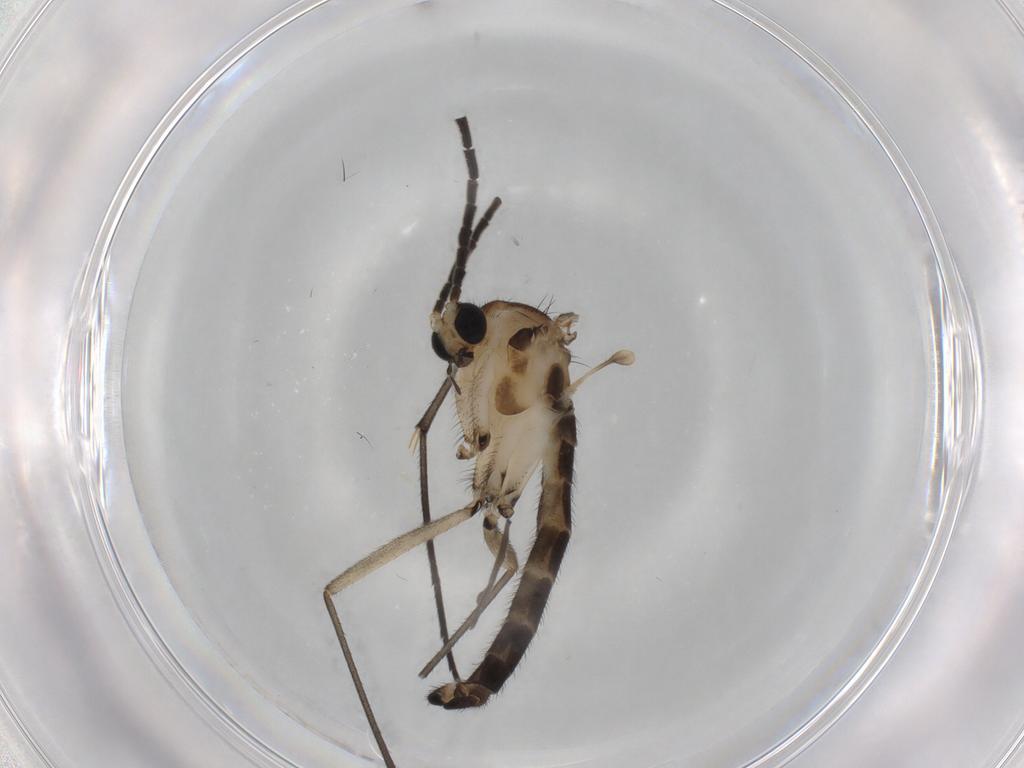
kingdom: Animalia
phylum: Arthropoda
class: Insecta
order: Diptera
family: Sciaridae
